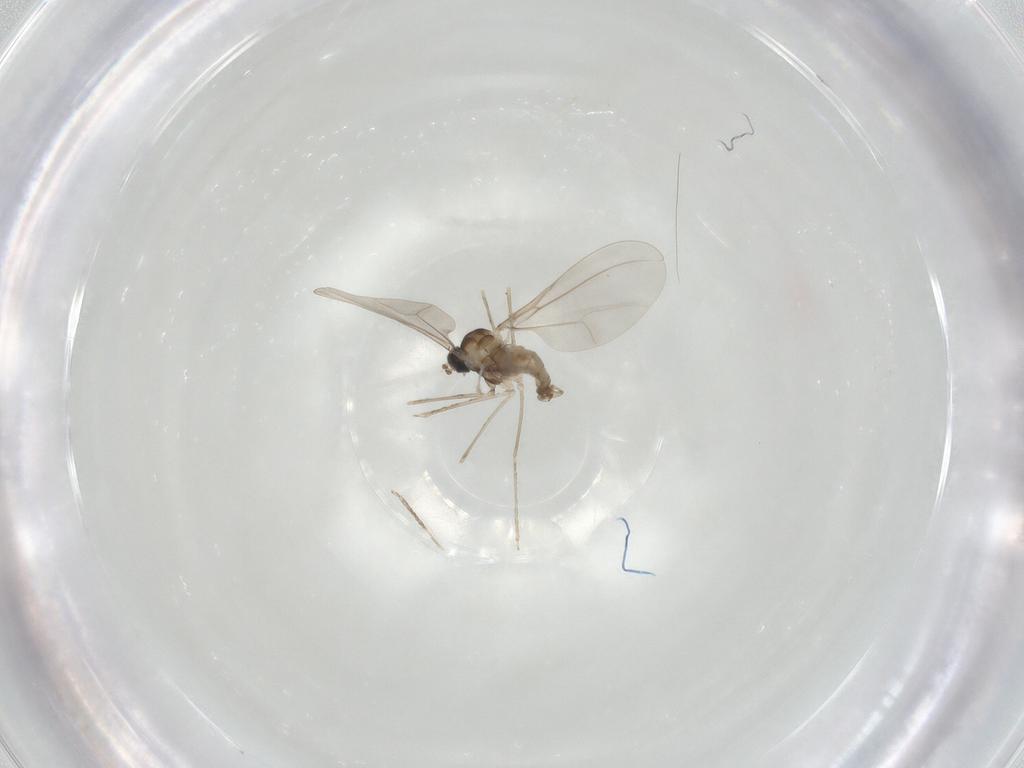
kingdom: Animalia
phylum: Arthropoda
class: Insecta
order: Diptera
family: Cecidomyiidae
